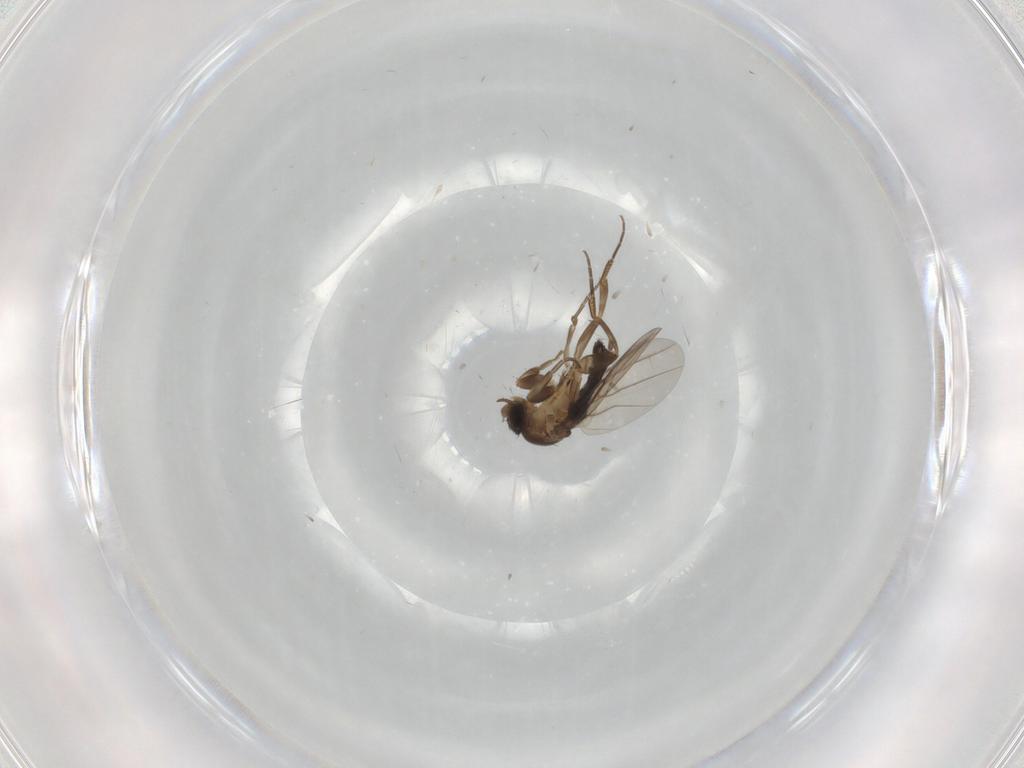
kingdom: Animalia
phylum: Arthropoda
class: Insecta
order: Diptera
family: Phoridae
